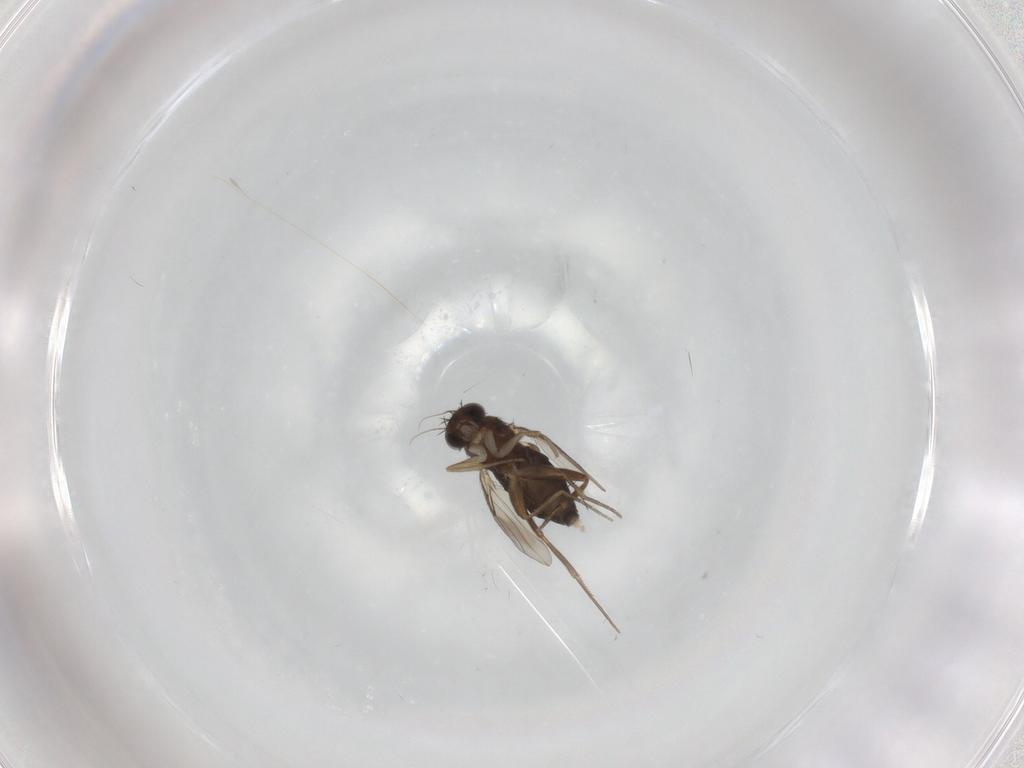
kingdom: Animalia
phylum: Arthropoda
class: Insecta
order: Diptera
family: Phoridae
